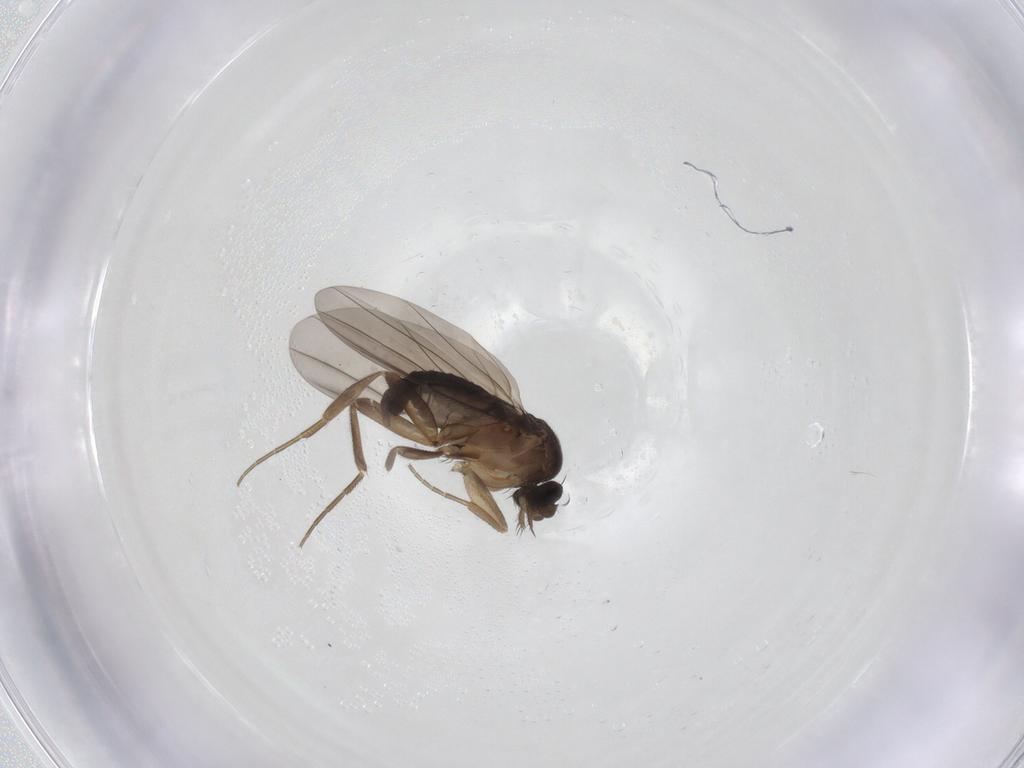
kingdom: Animalia
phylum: Arthropoda
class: Insecta
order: Diptera
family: Phoridae
